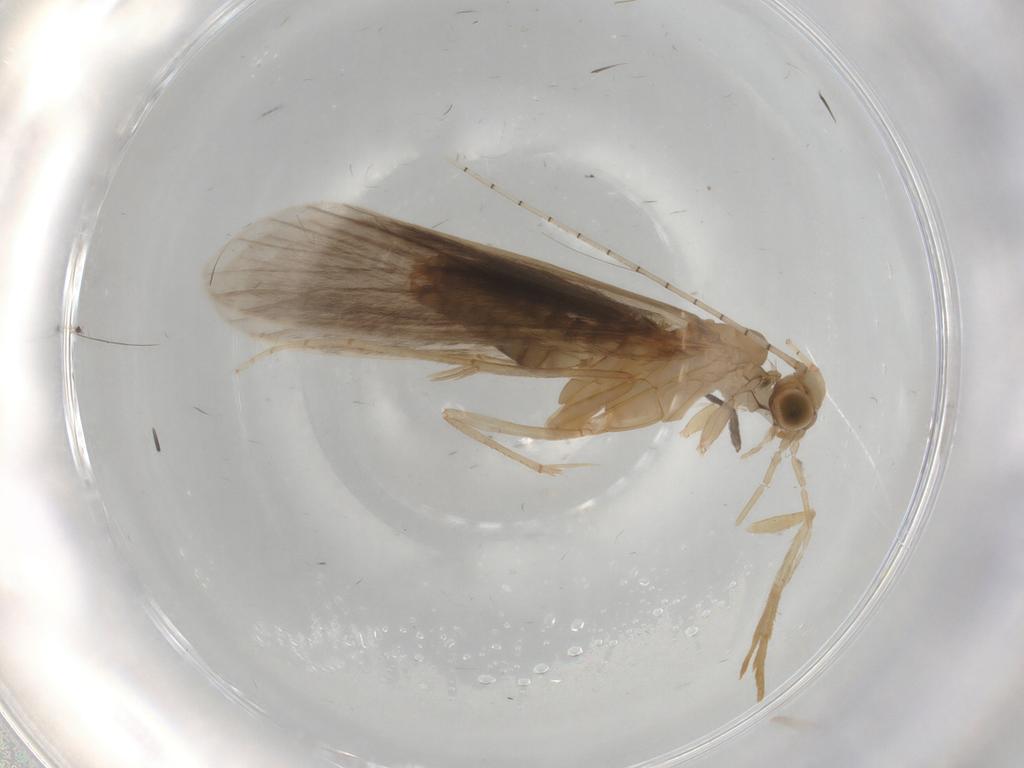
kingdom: Animalia
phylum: Arthropoda
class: Insecta
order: Trichoptera
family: Leptoceridae
